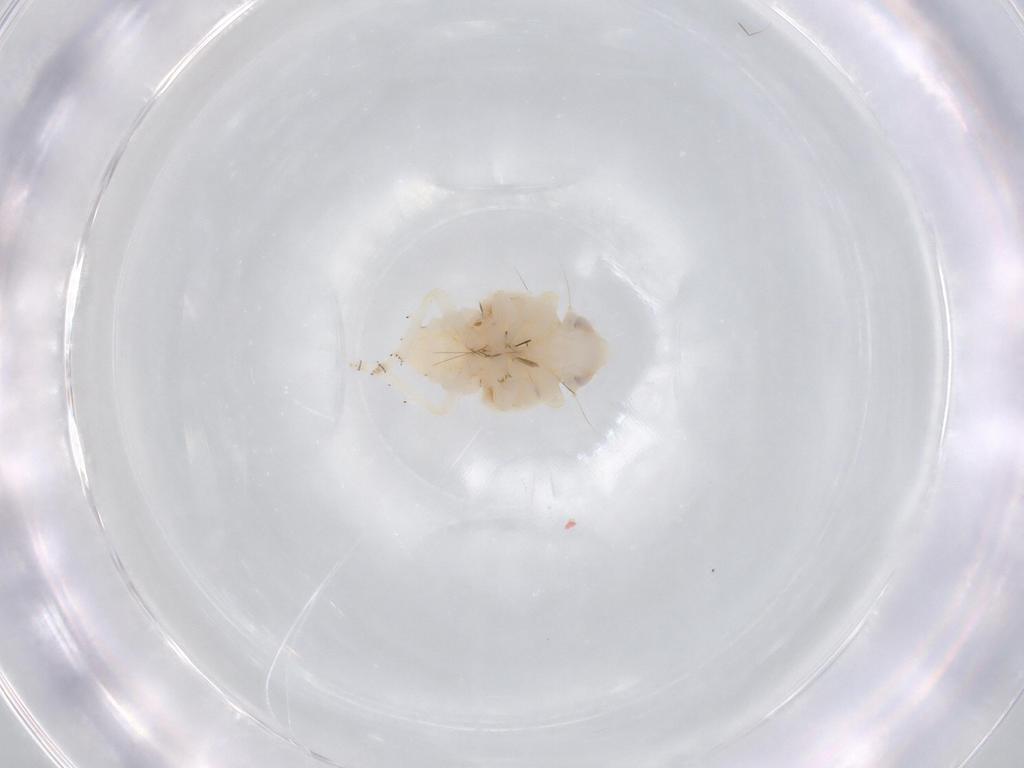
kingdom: Animalia
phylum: Arthropoda
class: Insecta
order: Hemiptera
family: Nogodinidae
